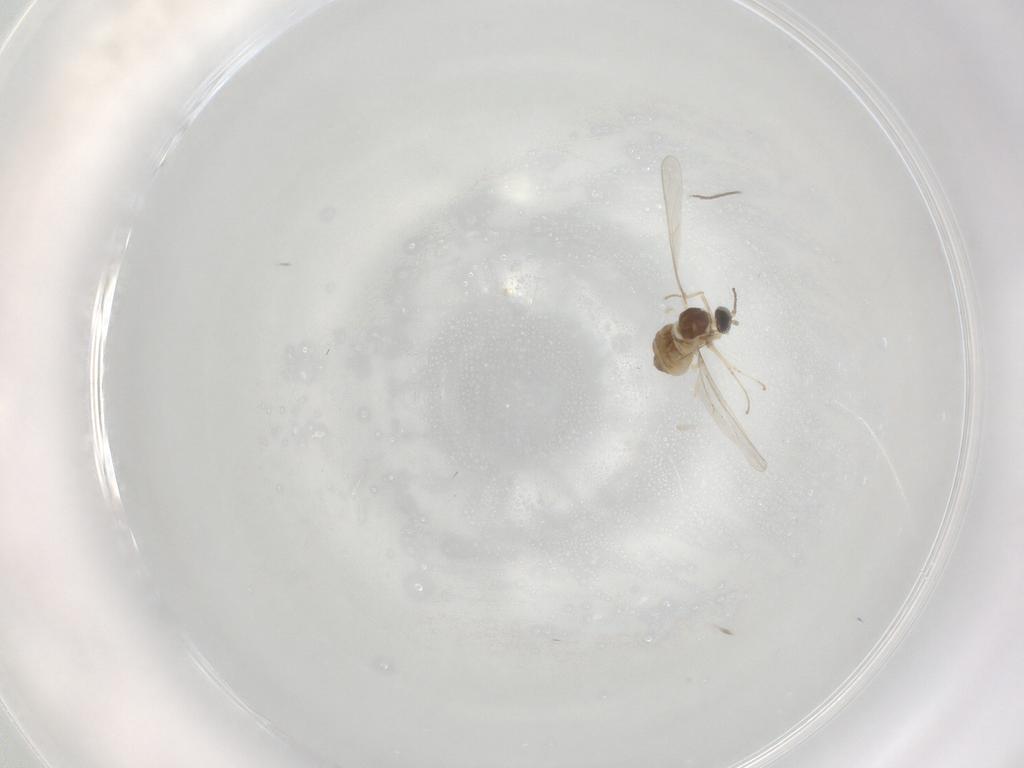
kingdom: Animalia
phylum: Arthropoda
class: Insecta
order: Diptera
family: Cecidomyiidae
